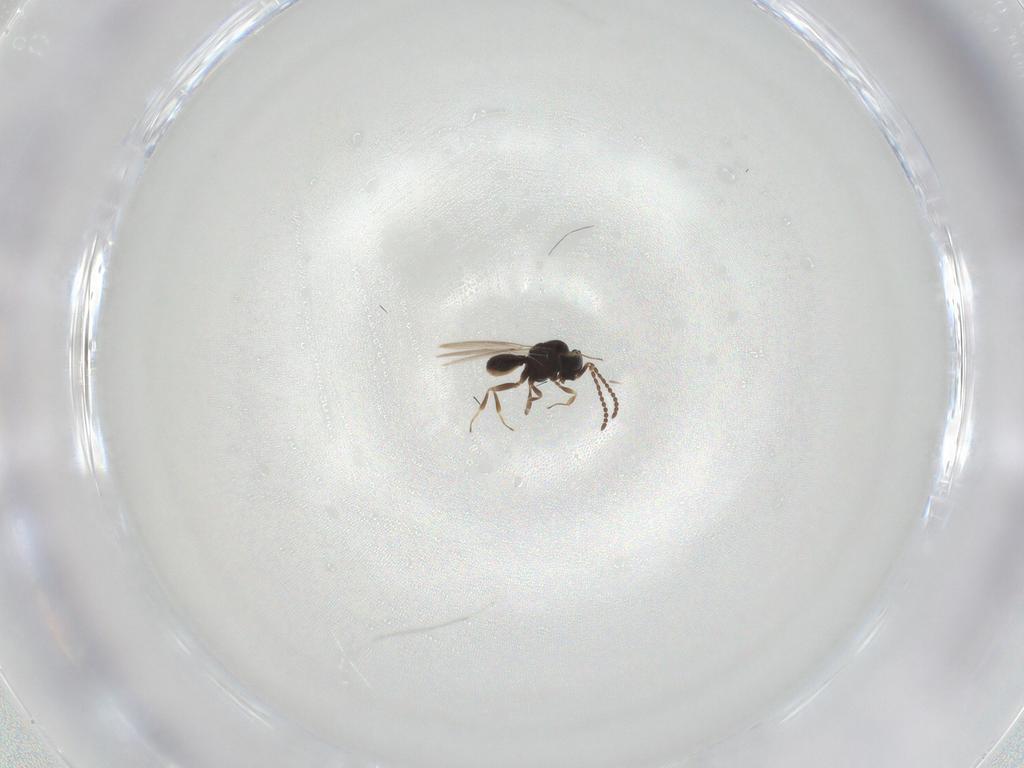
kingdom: Animalia
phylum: Arthropoda
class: Insecta
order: Hymenoptera
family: Scelionidae
